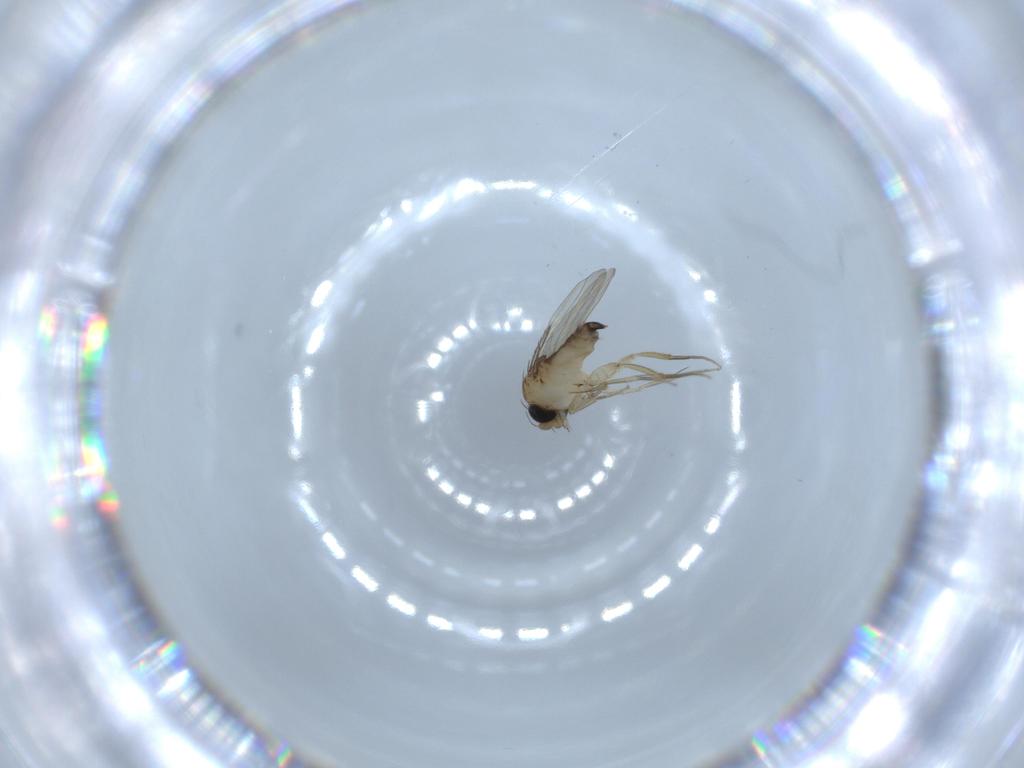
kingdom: Animalia
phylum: Arthropoda
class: Insecta
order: Diptera
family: Phoridae
